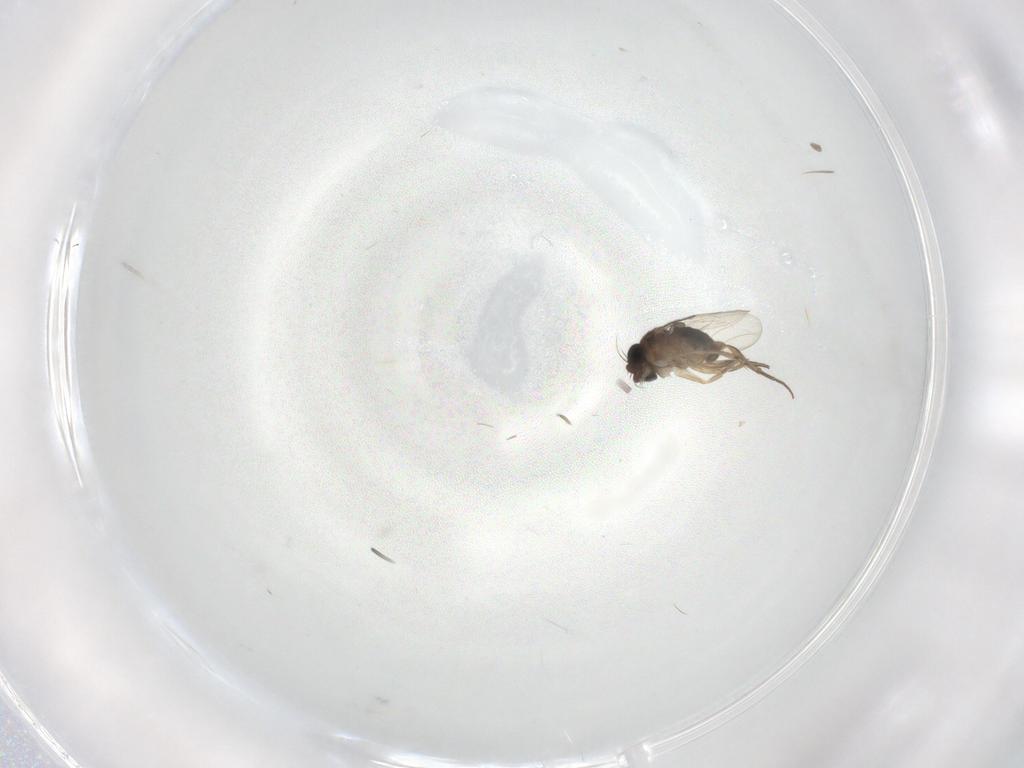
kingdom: Animalia
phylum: Arthropoda
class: Insecta
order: Diptera
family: Phoridae
